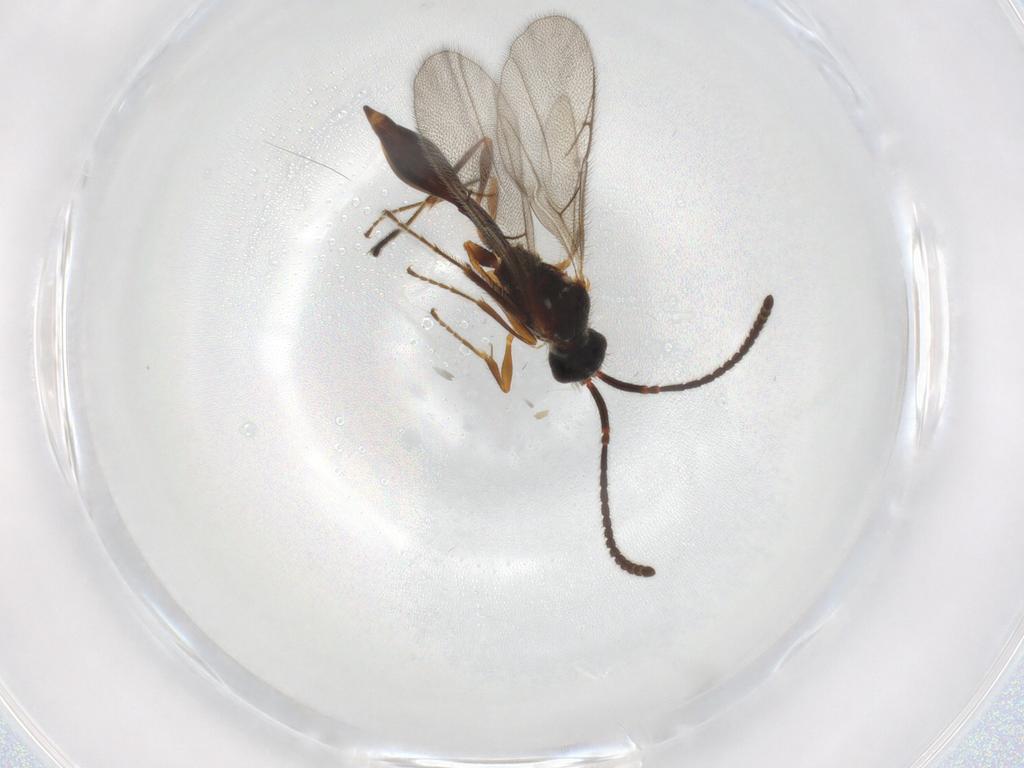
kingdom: Animalia
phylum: Arthropoda
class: Insecta
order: Hymenoptera
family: Diapriidae
